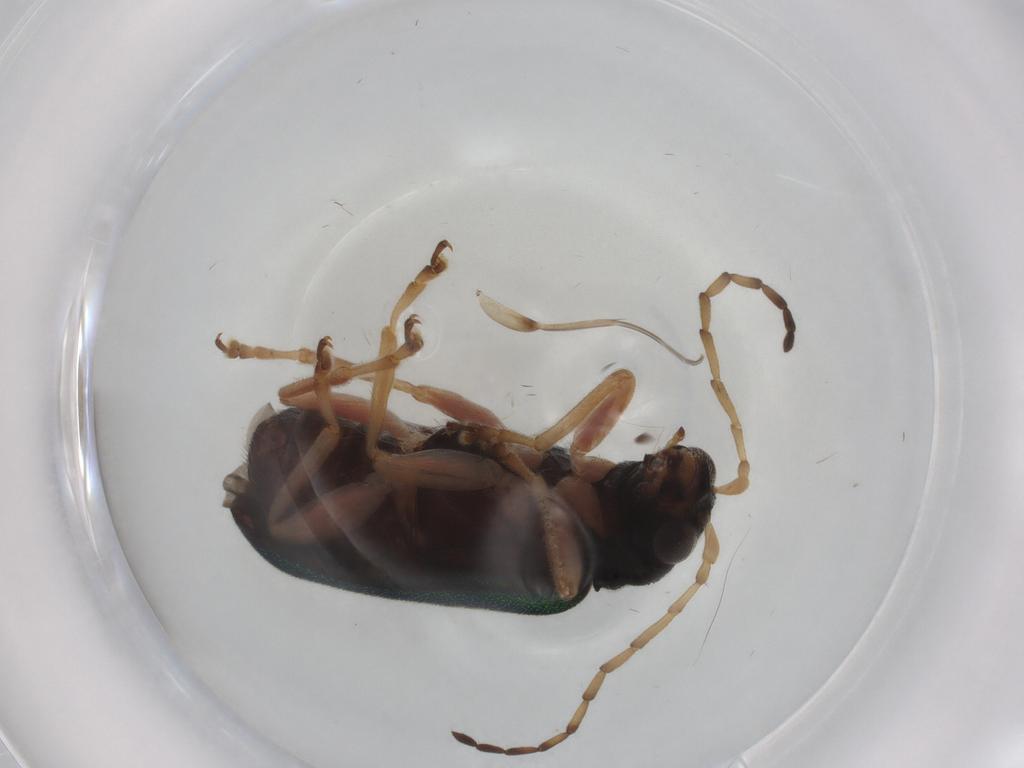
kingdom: Animalia
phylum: Arthropoda
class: Insecta
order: Coleoptera
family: Chrysomelidae
